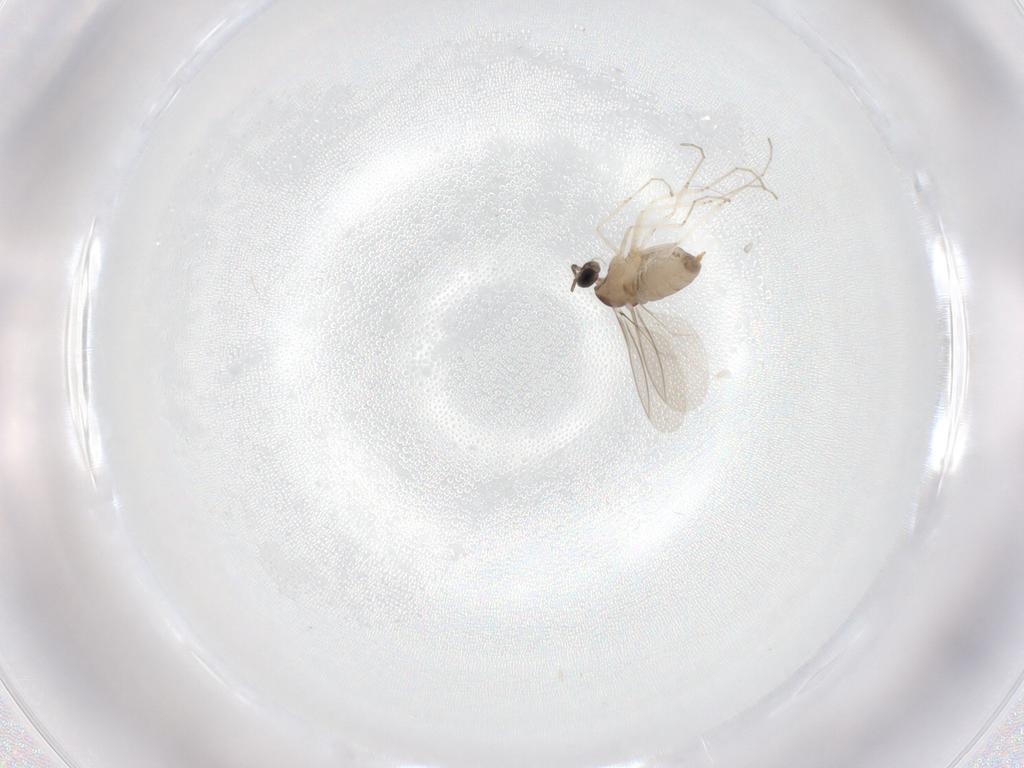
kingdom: Animalia
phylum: Arthropoda
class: Insecta
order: Diptera
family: Cecidomyiidae
